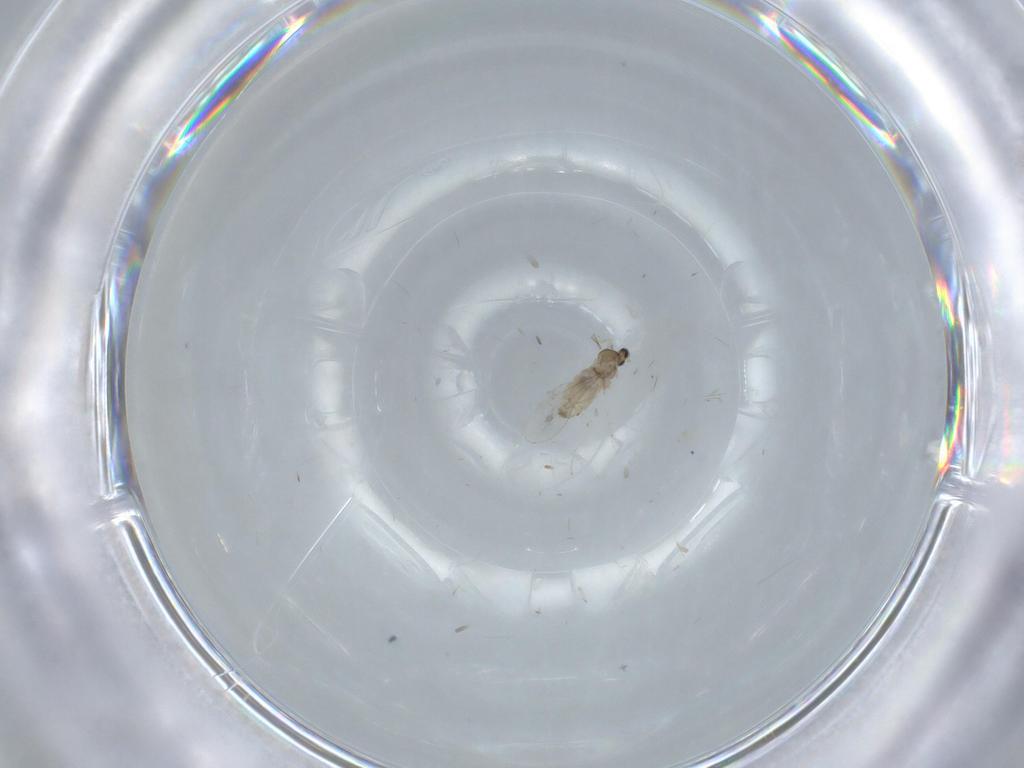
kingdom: Animalia
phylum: Arthropoda
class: Insecta
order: Diptera
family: Milichiidae
